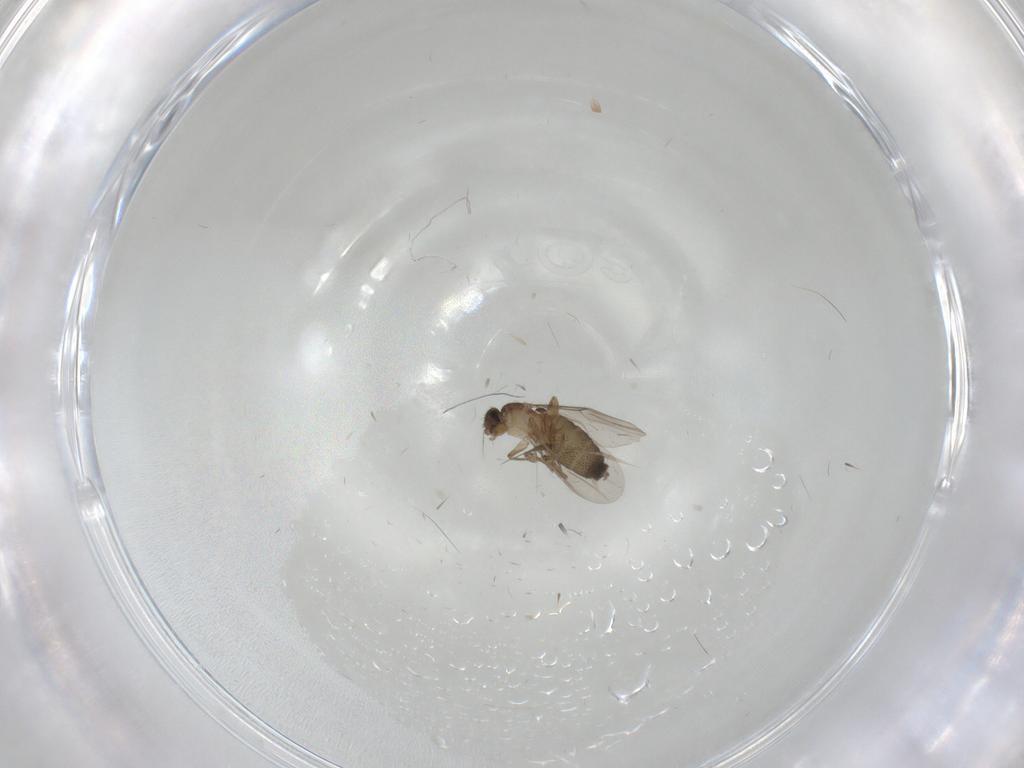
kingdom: Animalia
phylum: Arthropoda
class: Insecta
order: Diptera
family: Phoridae
